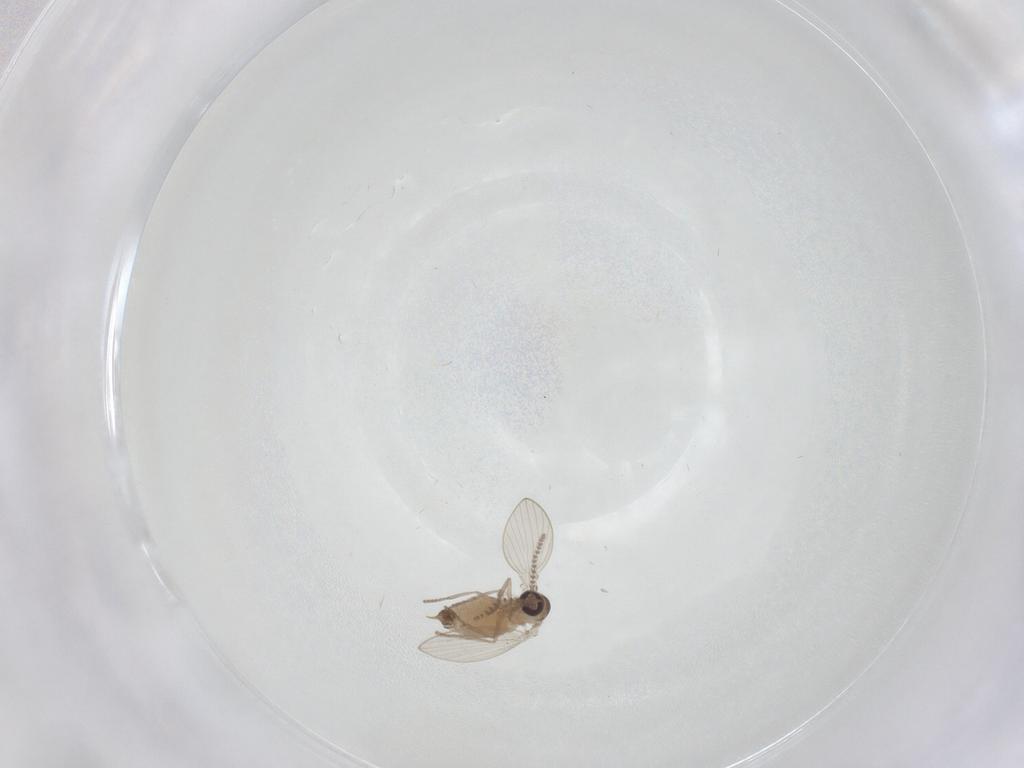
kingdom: Animalia
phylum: Arthropoda
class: Insecta
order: Diptera
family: Psychodidae
